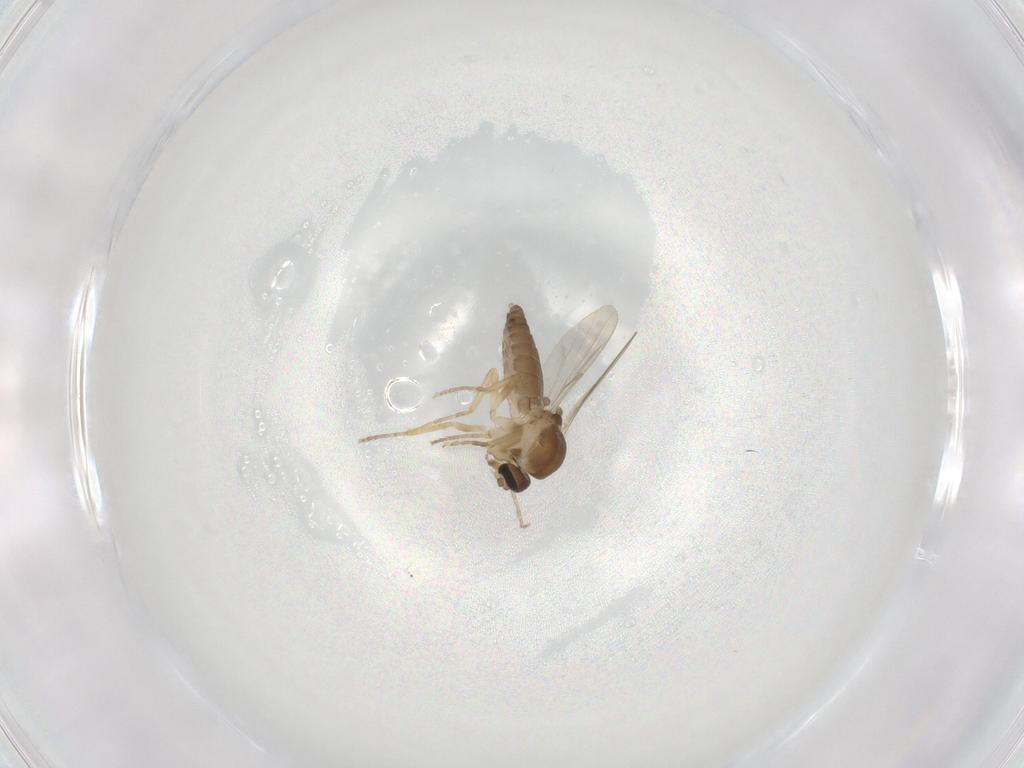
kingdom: Animalia
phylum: Arthropoda
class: Insecta
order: Diptera
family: Ceratopogonidae
